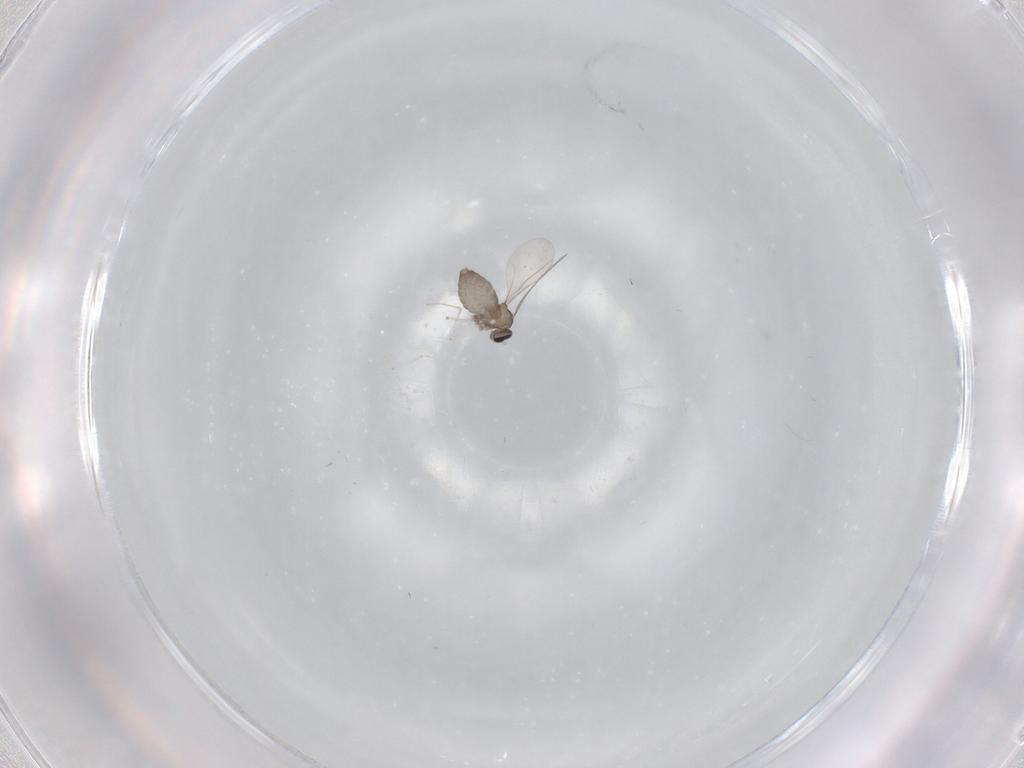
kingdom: Animalia
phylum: Arthropoda
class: Insecta
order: Diptera
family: Cecidomyiidae
